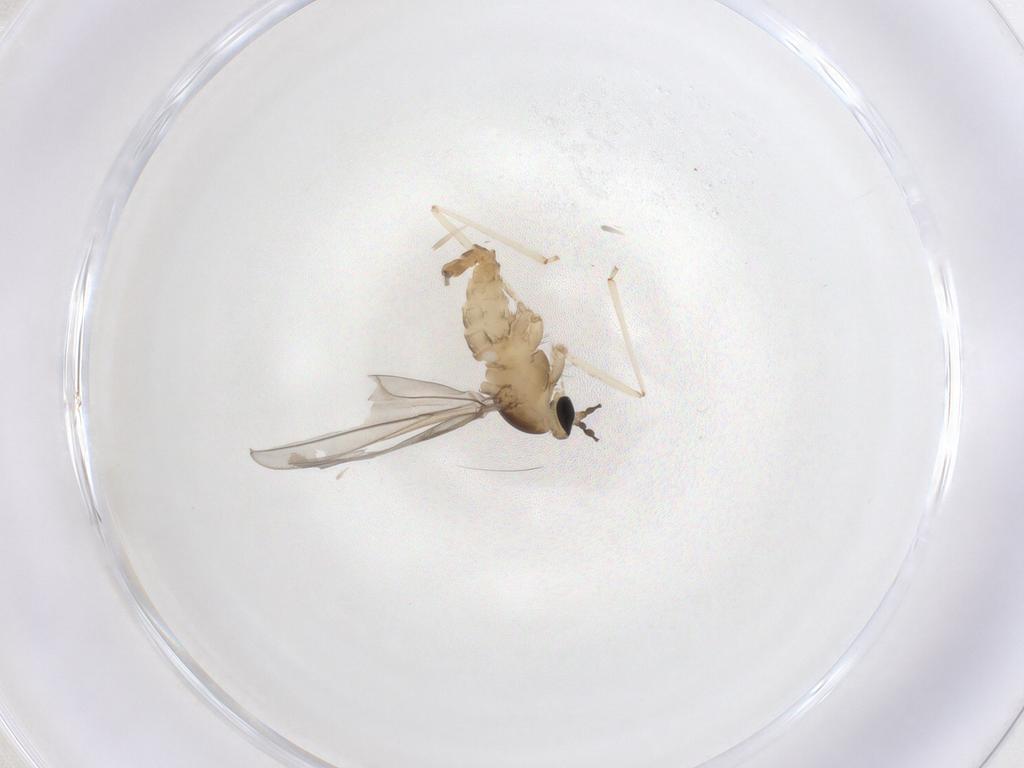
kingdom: Animalia
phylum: Arthropoda
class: Insecta
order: Diptera
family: Cecidomyiidae
